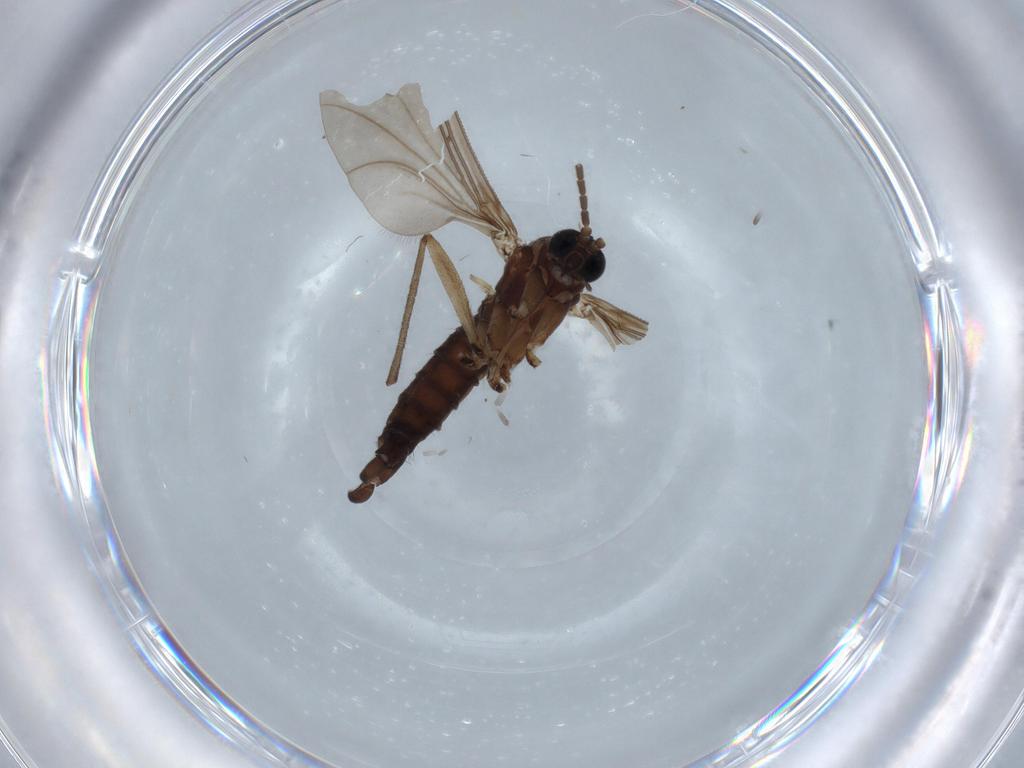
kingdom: Animalia
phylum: Arthropoda
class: Insecta
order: Diptera
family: Sciaridae
